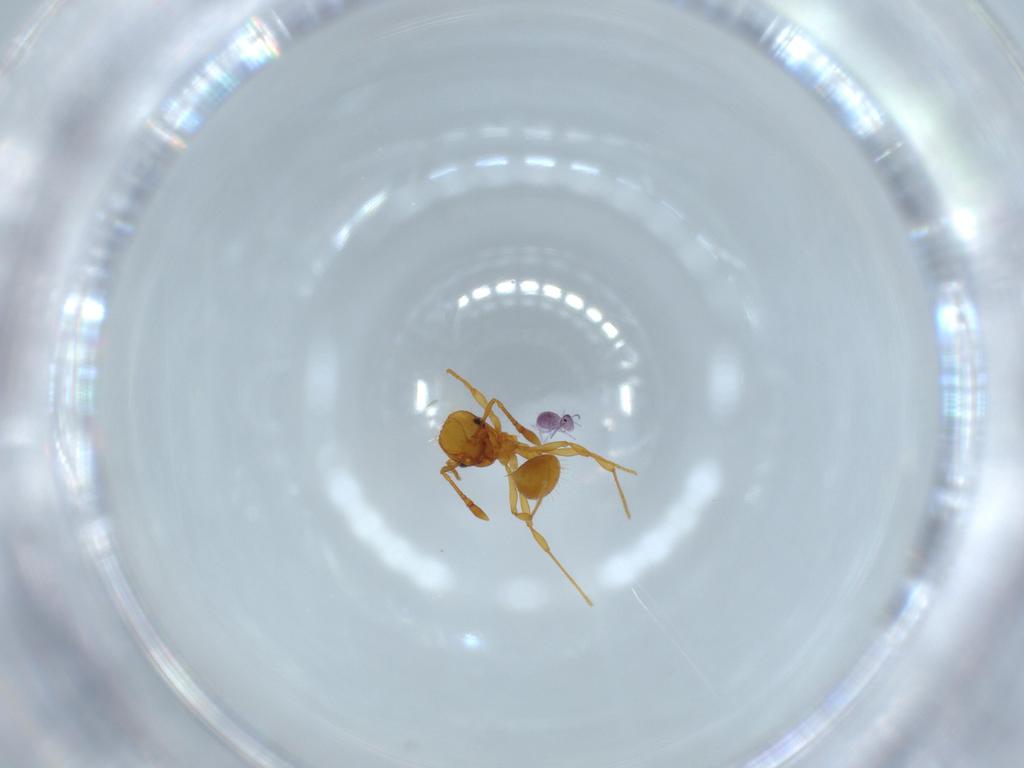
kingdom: Animalia
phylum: Arthropoda
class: Insecta
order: Hymenoptera
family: Formicidae
